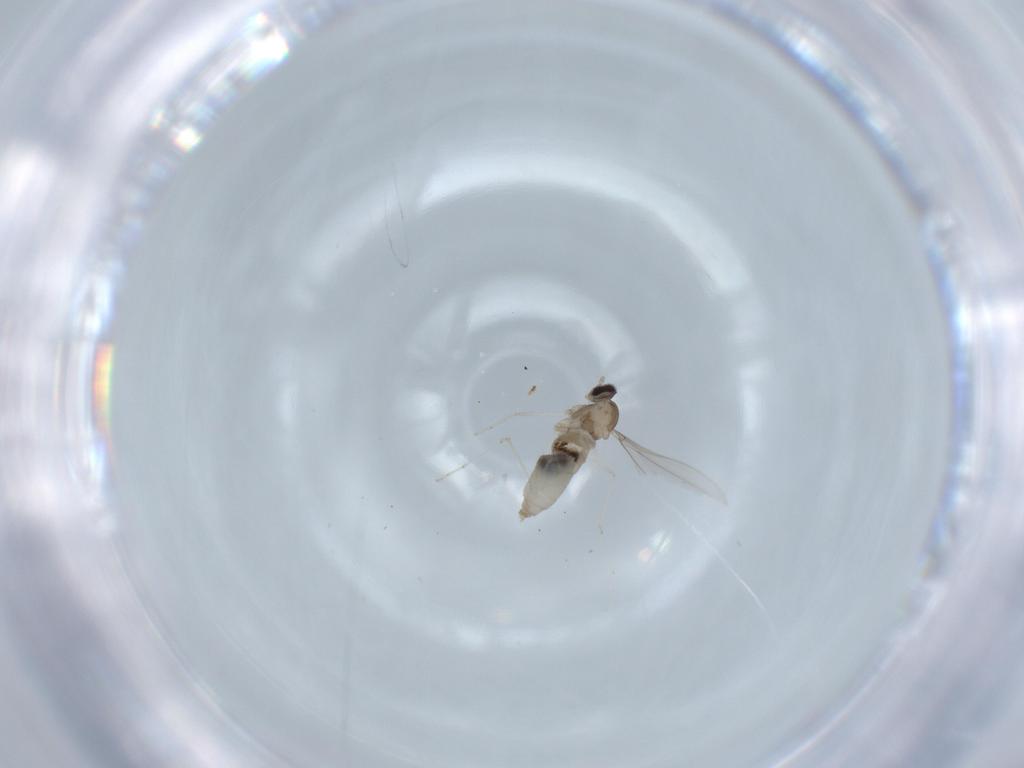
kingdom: Animalia
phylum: Arthropoda
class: Insecta
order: Diptera
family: Cecidomyiidae
